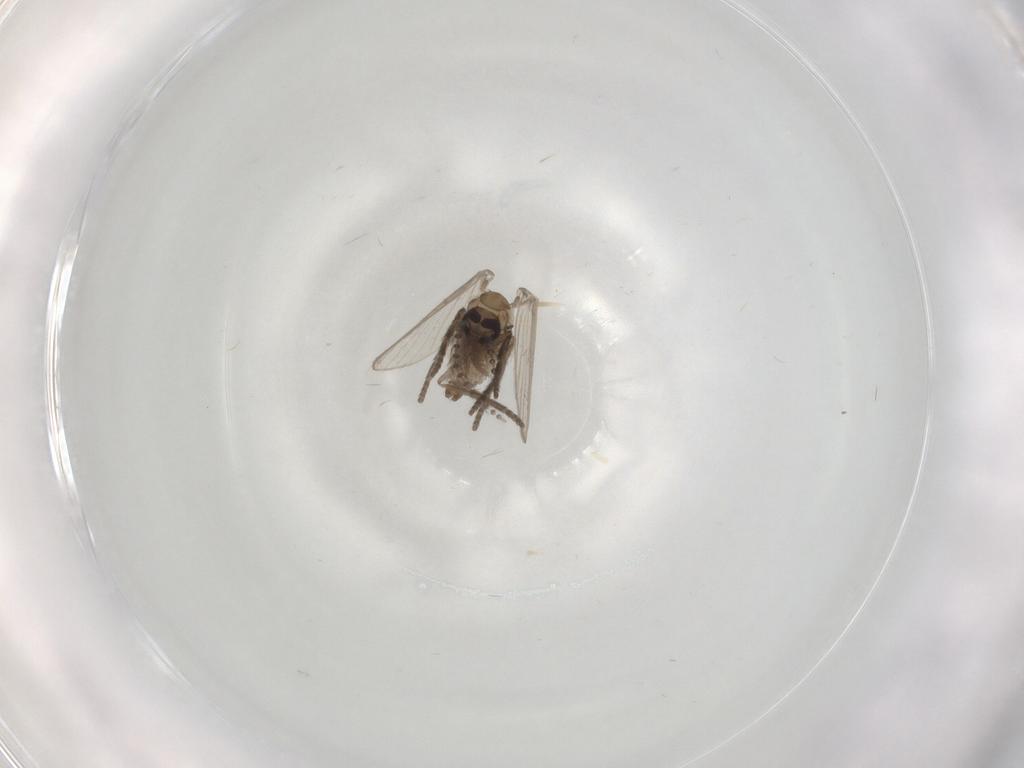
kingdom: Animalia
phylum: Arthropoda
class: Insecta
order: Diptera
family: Psychodidae
